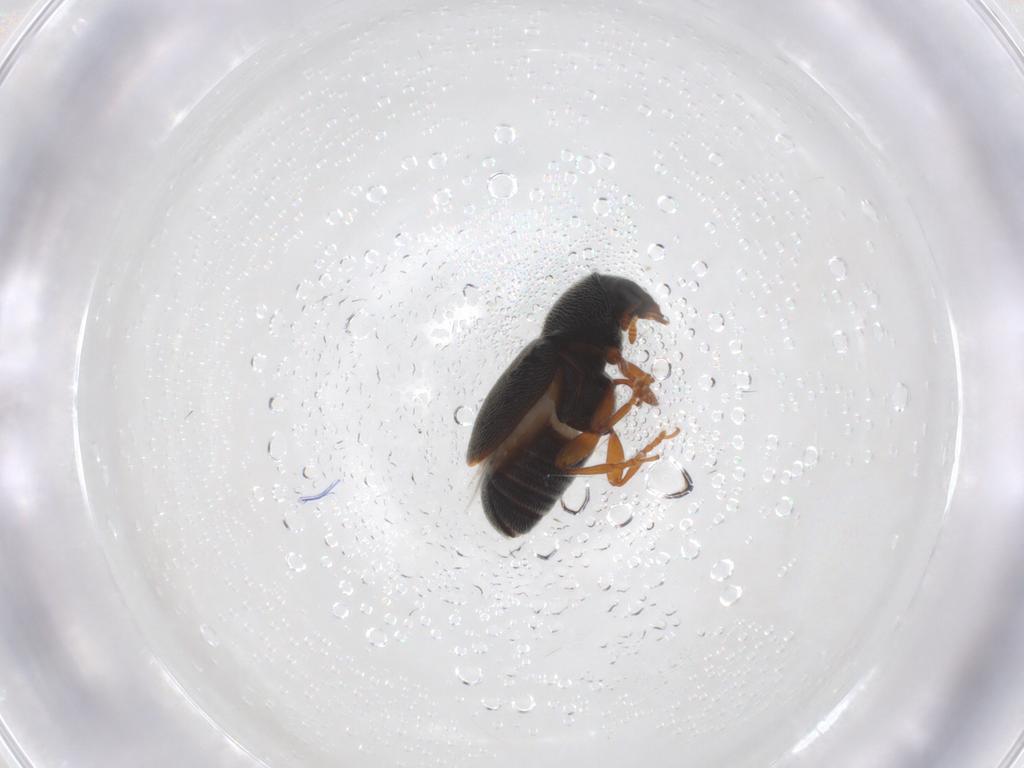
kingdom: Animalia
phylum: Arthropoda
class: Insecta
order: Coleoptera
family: Anthribidae
